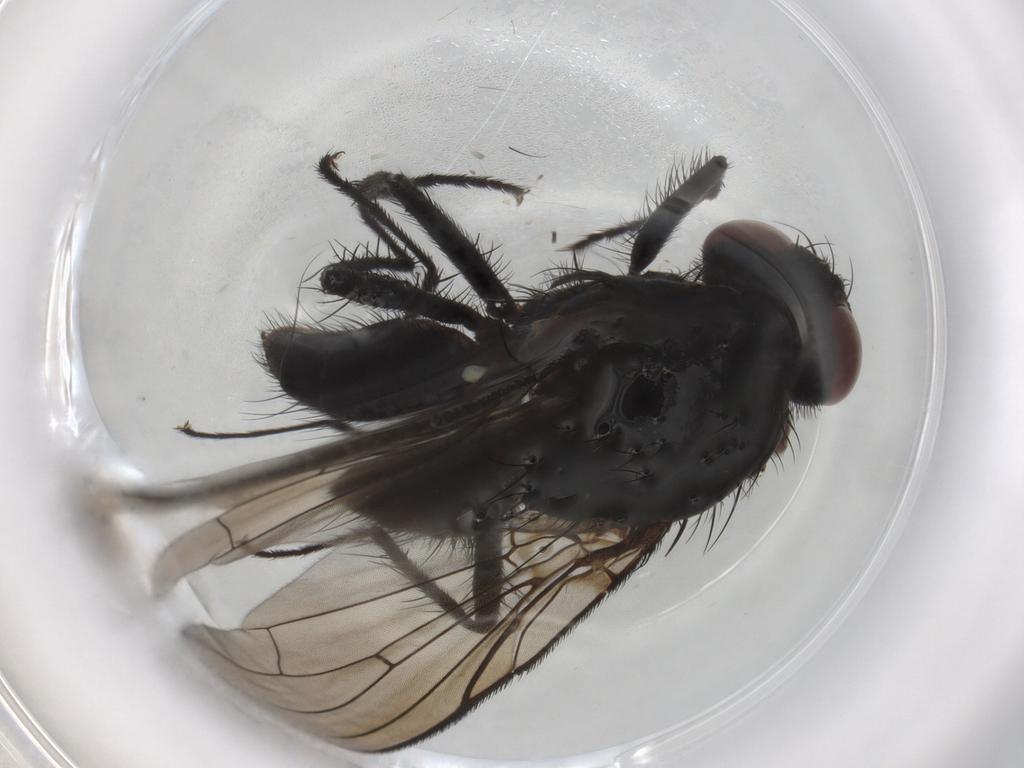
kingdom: Animalia
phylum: Arthropoda
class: Insecta
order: Diptera
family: Anthomyiidae
